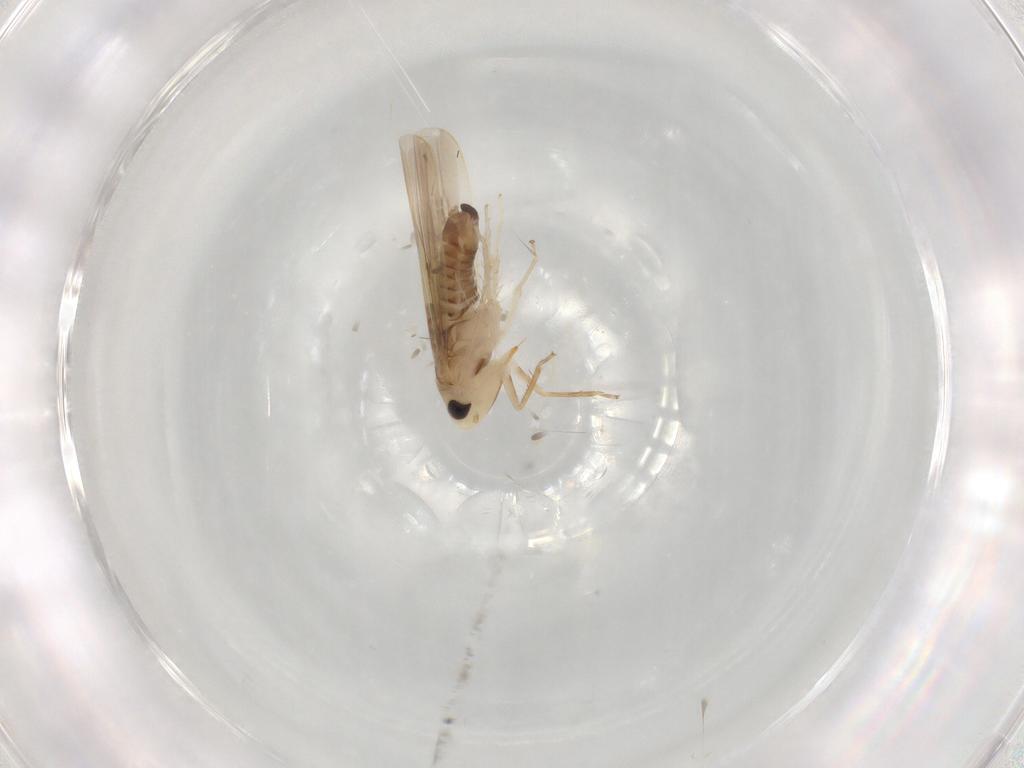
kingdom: Animalia
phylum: Arthropoda
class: Insecta
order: Hemiptera
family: Cicadellidae
